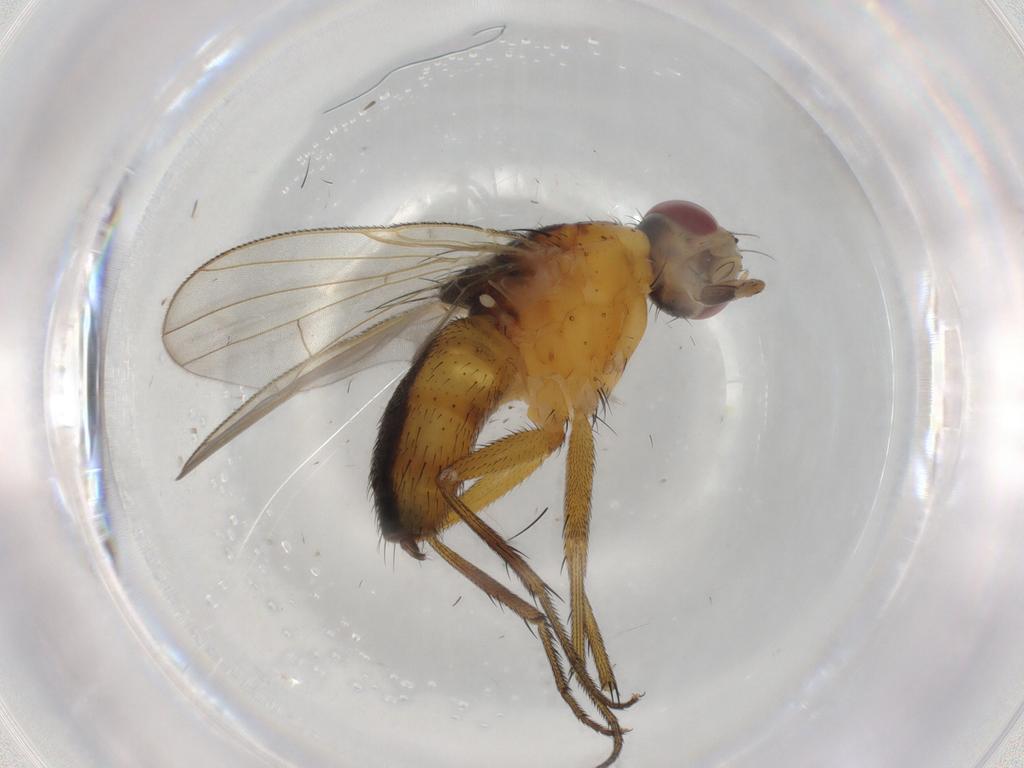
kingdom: Animalia
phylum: Arthropoda
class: Insecta
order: Diptera
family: Muscidae
